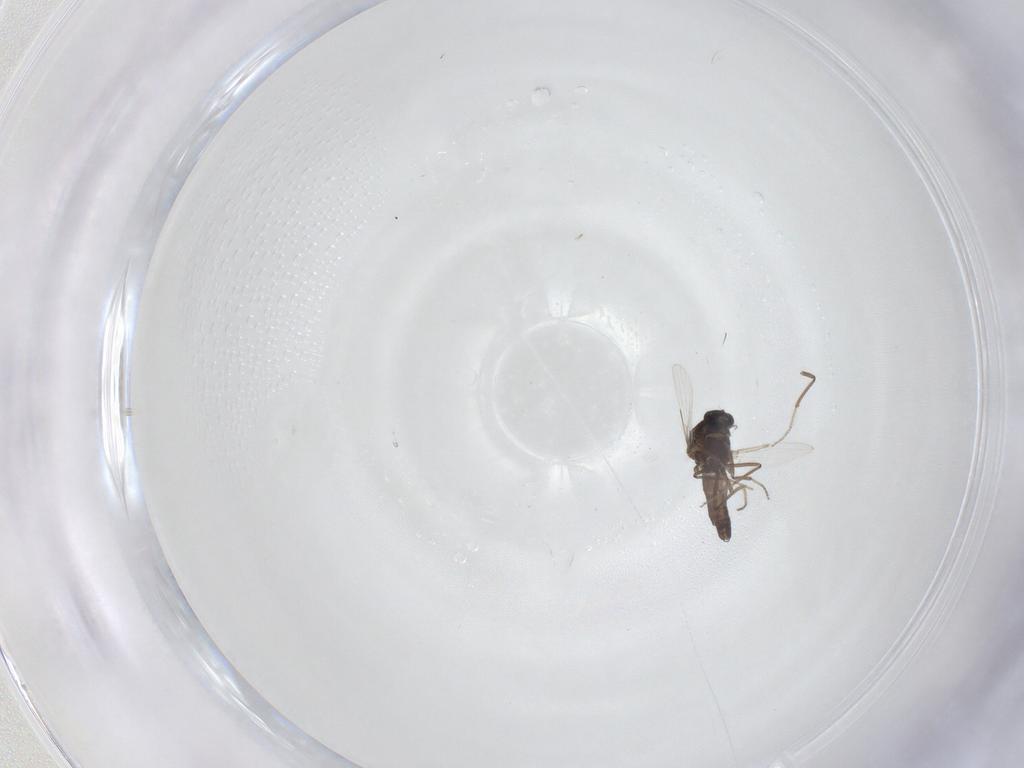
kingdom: Animalia
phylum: Arthropoda
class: Insecta
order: Diptera
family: Ceratopogonidae
